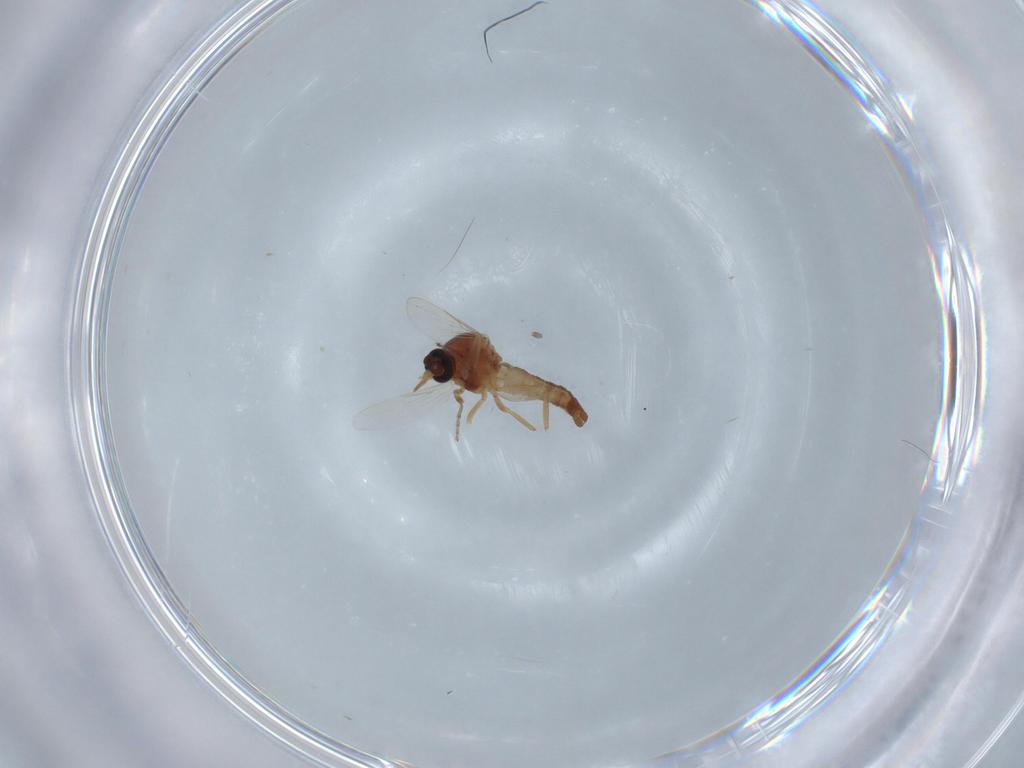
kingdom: Animalia
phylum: Arthropoda
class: Insecta
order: Diptera
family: Ceratopogonidae
